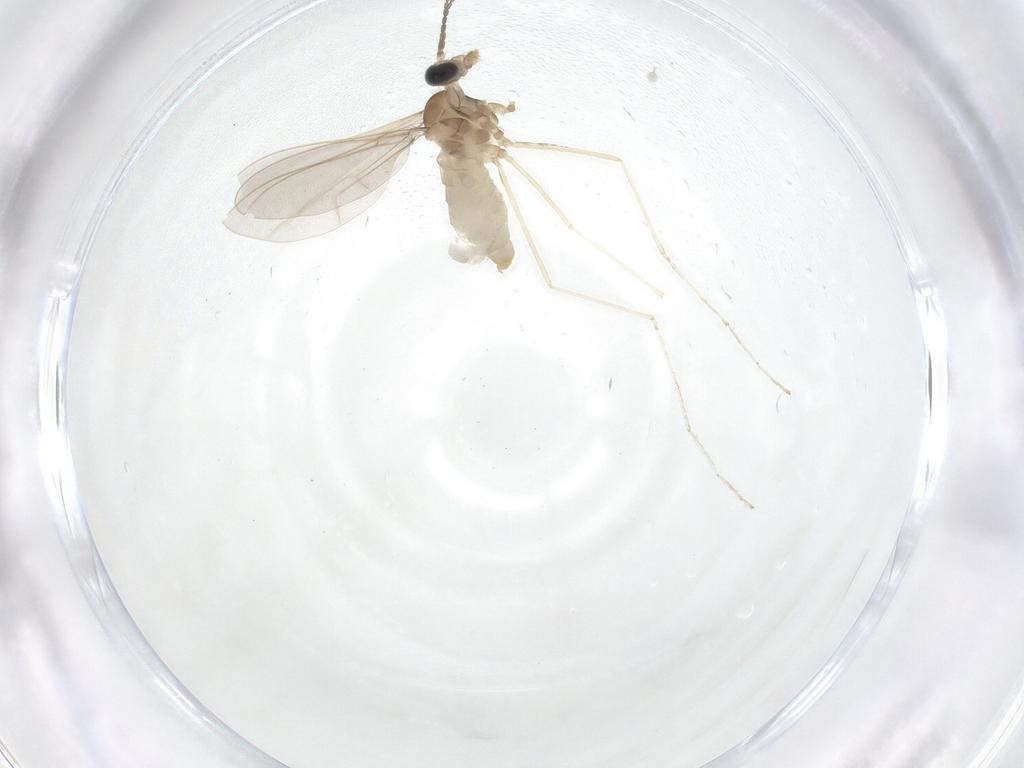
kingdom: Animalia
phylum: Arthropoda
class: Insecta
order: Diptera
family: Cecidomyiidae
